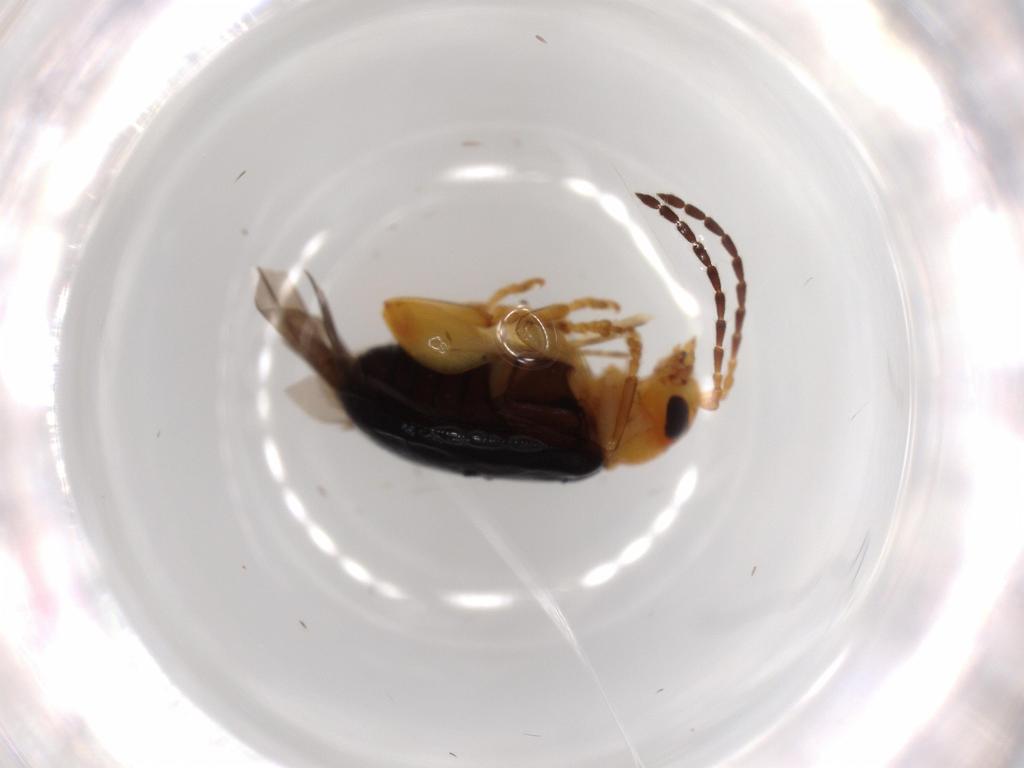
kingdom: Animalia
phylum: Arthropoda
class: Insecta
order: Coleoptera
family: Chrysomelidae
